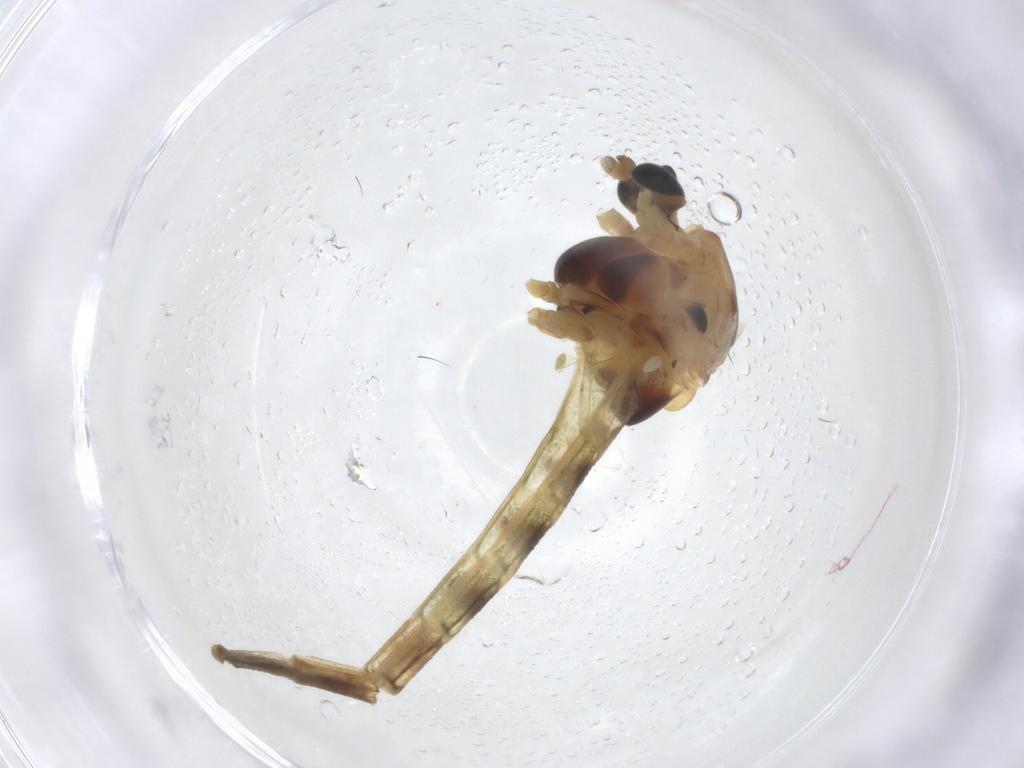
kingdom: Animalia
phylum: Arthropoda
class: Insecta
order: Diptera
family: Chironomidae
